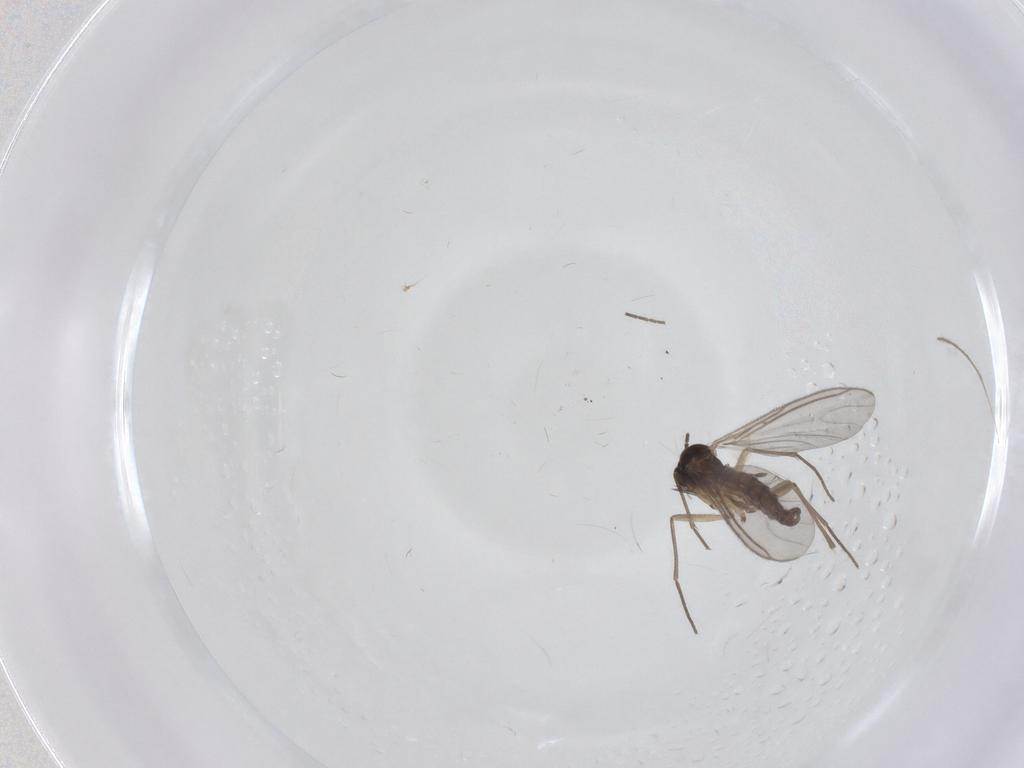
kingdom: Animalia
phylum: Arthropoda
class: Insecta
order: Diptera
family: Sciaridae
